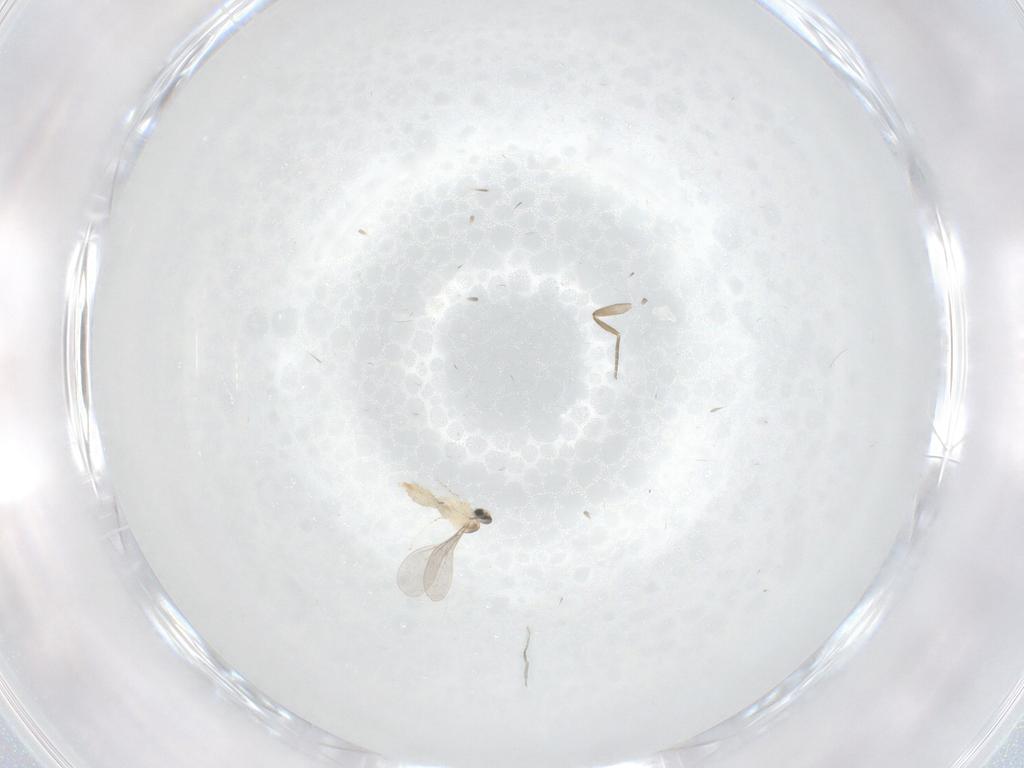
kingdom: Animalia
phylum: Arthropoda
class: Insecta
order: Diptera
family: Cecidomyiidae
